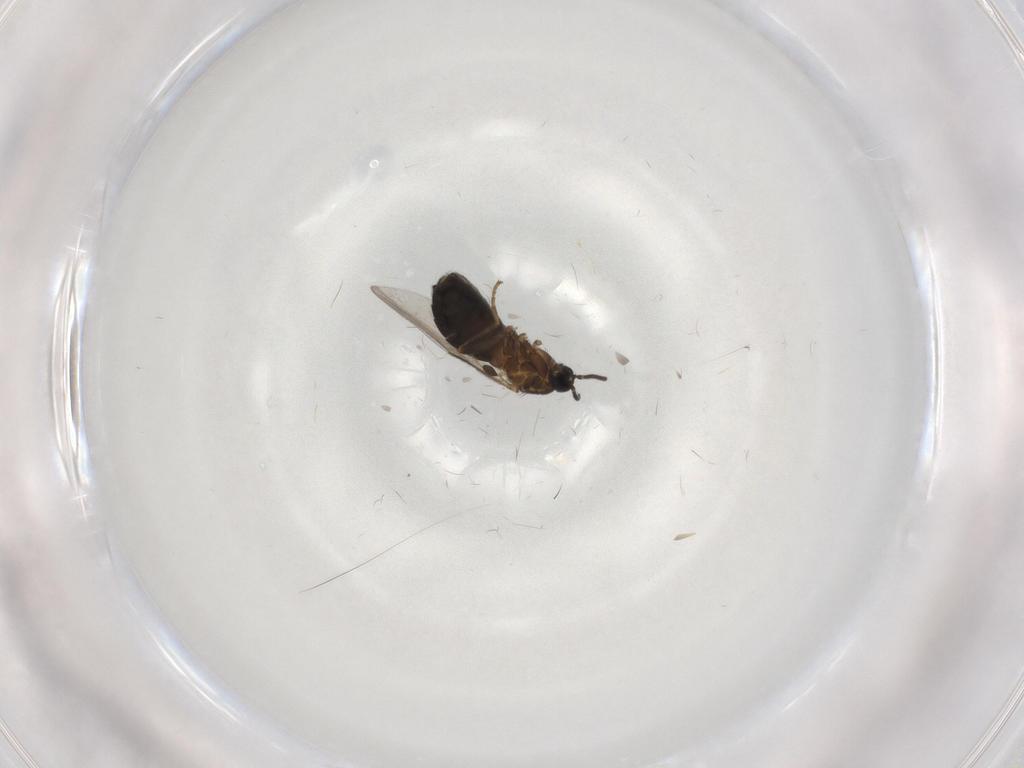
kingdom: Animalia
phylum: Arthropoda
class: Insecta
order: Diptera
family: Scatopsidae
